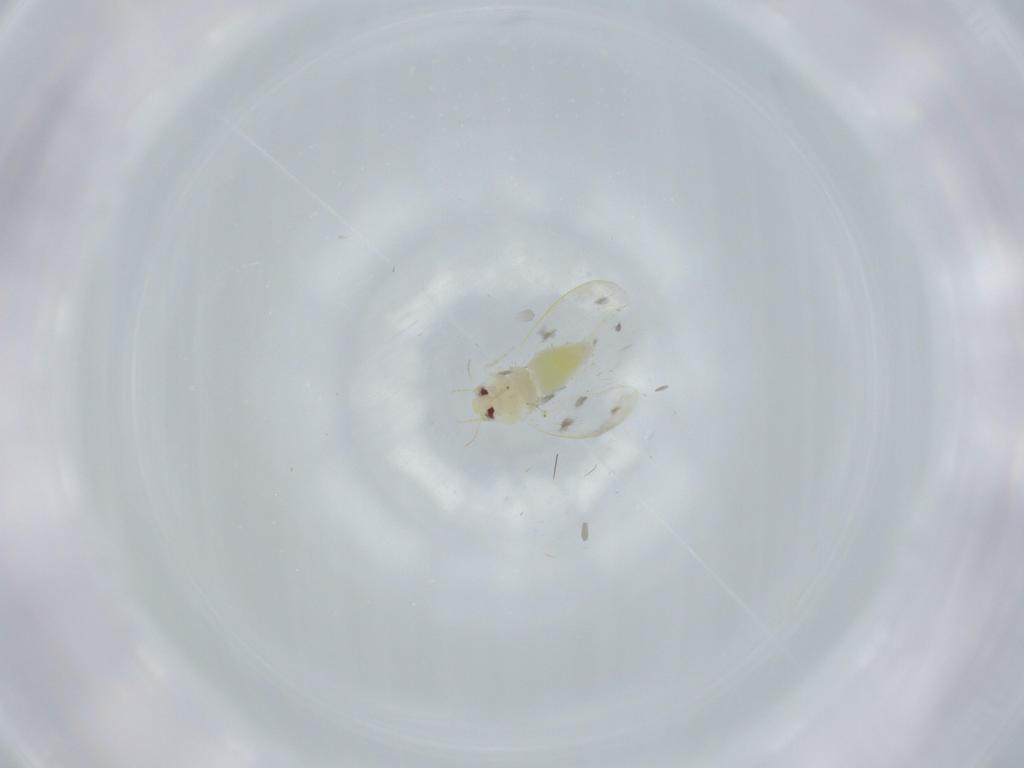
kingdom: Animalia
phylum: Arthropoda
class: Insecta
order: Hemiptera
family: Aleyrodidae
